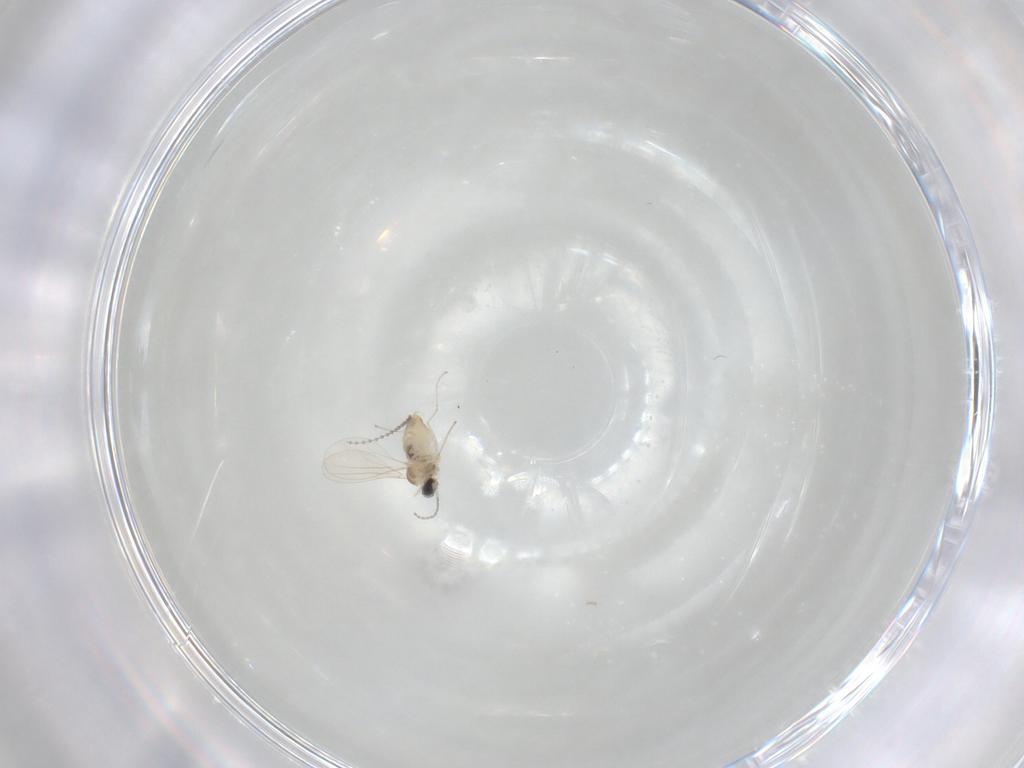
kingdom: Animalia
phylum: Arthropoda
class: Insecta
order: Diptera
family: Cecidomyiidae
